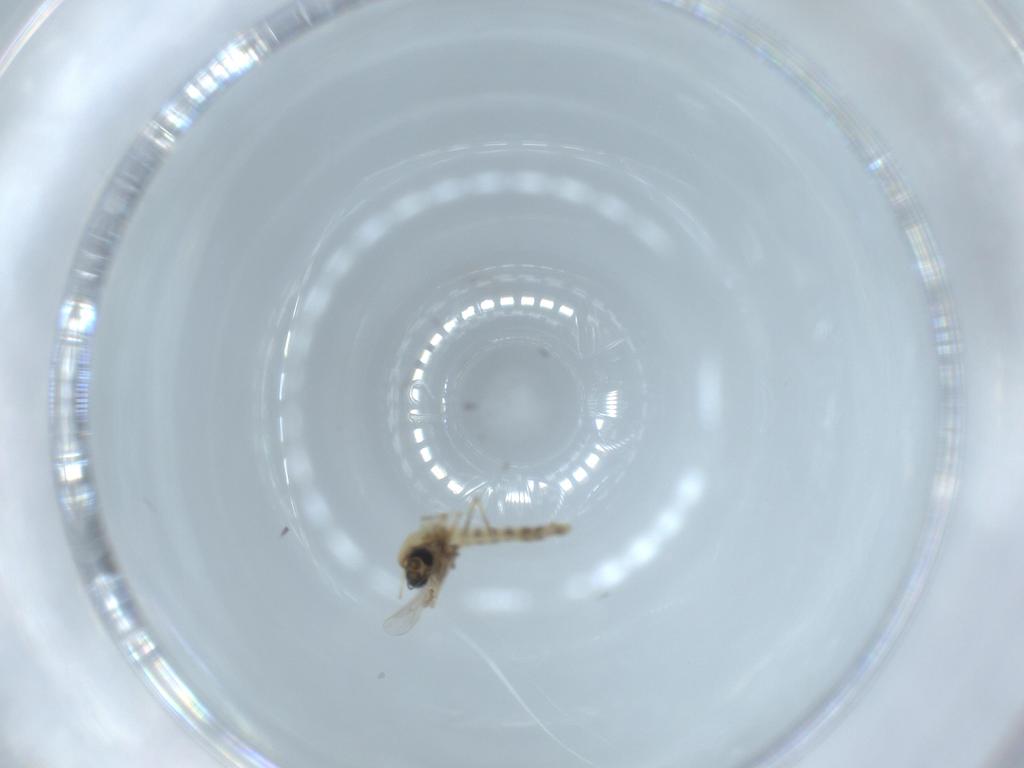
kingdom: Animalia
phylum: Arthropoda
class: Insecta
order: Diptera
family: Chironomidae
